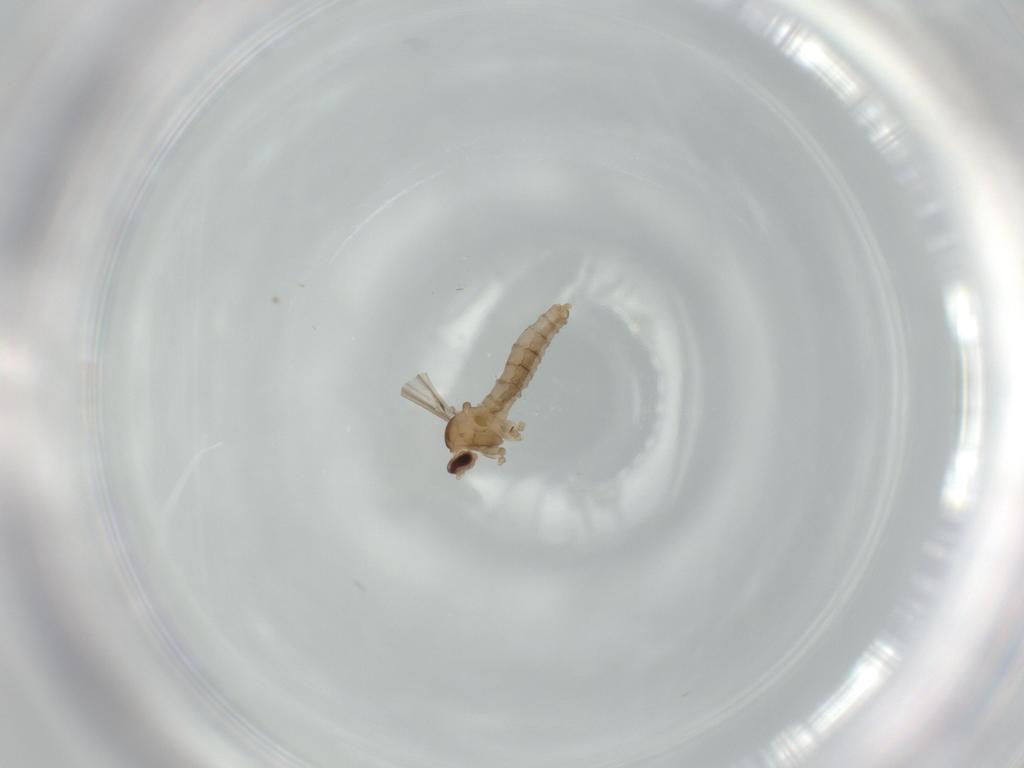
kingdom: Animalia
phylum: Arthropoda
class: Insecta
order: Diptera
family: Cecidomyiidae
